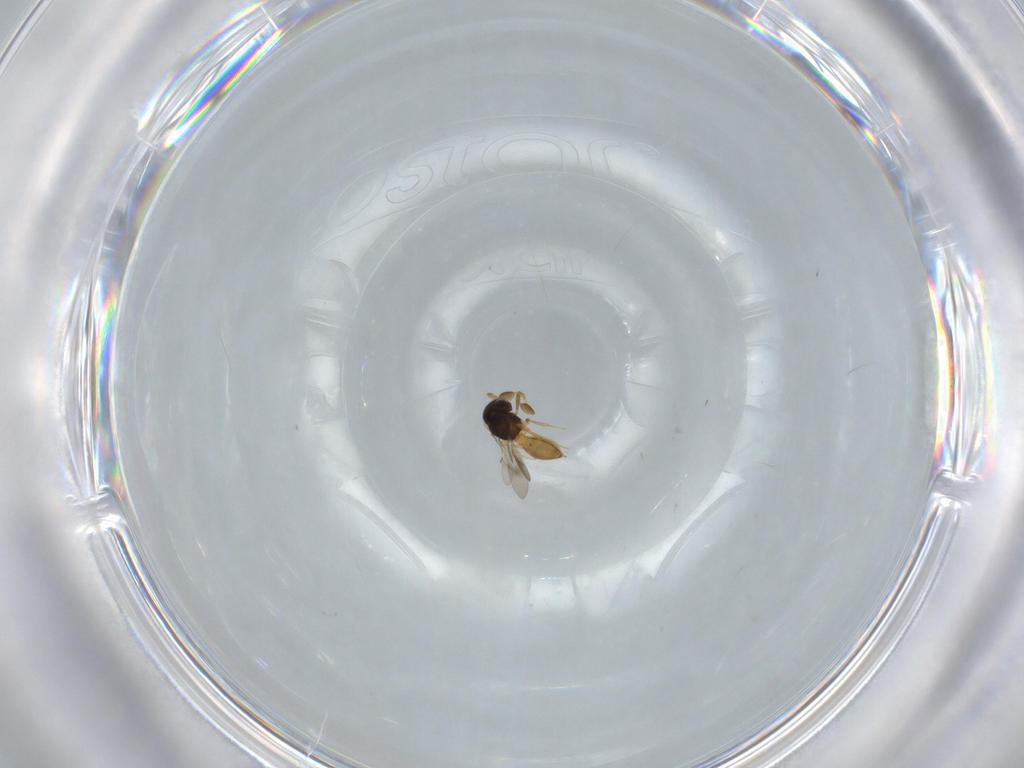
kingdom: Animalia
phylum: Arthropoda
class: Insecta
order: Hymenoptera
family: Scelionidae
